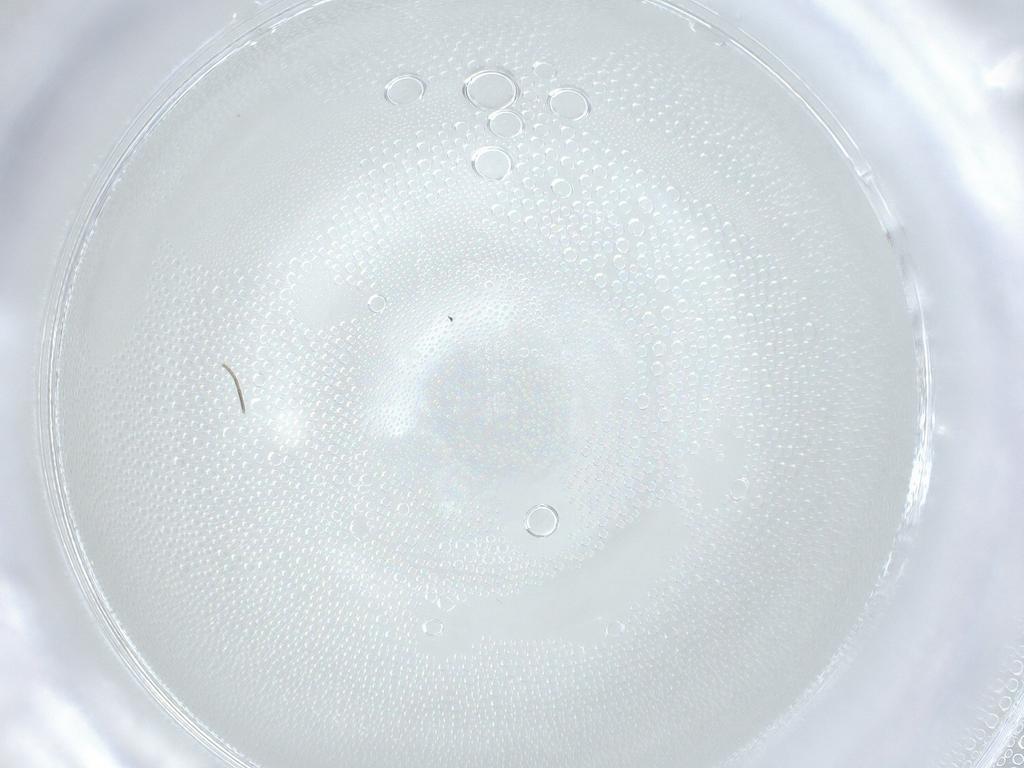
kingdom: Animalia
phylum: Arthropoda
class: Insecta
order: Diptera
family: Phoridae
